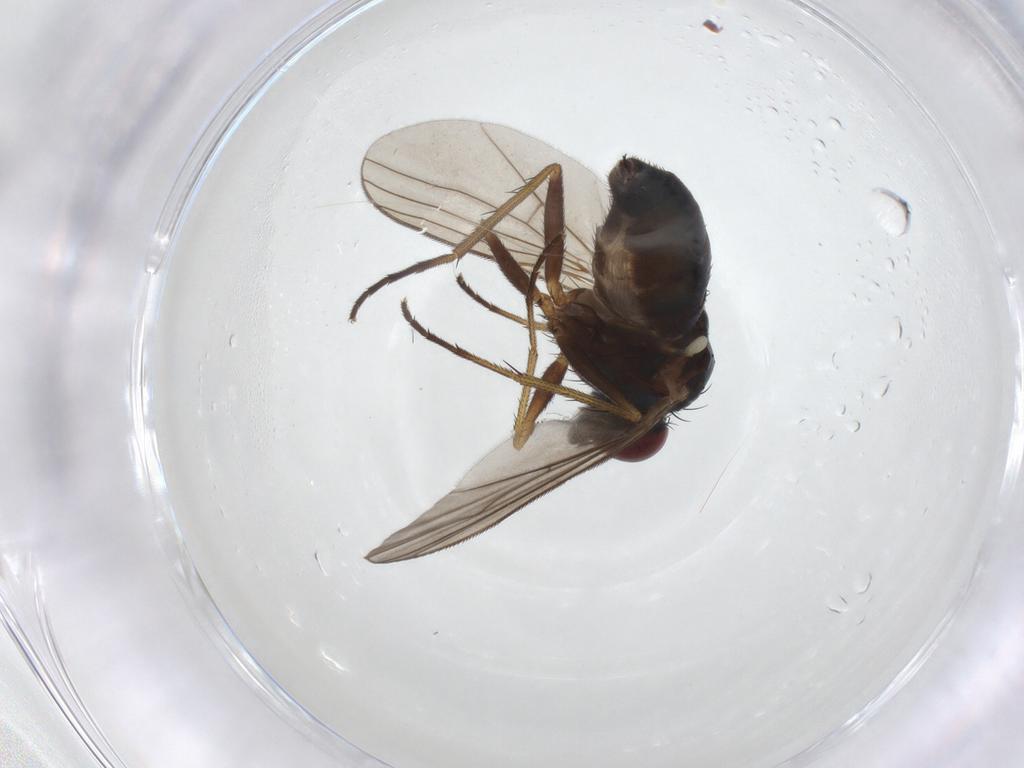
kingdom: Animalia
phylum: Arthropoda
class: Insecta
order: Diptera
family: Dolichopodidae
